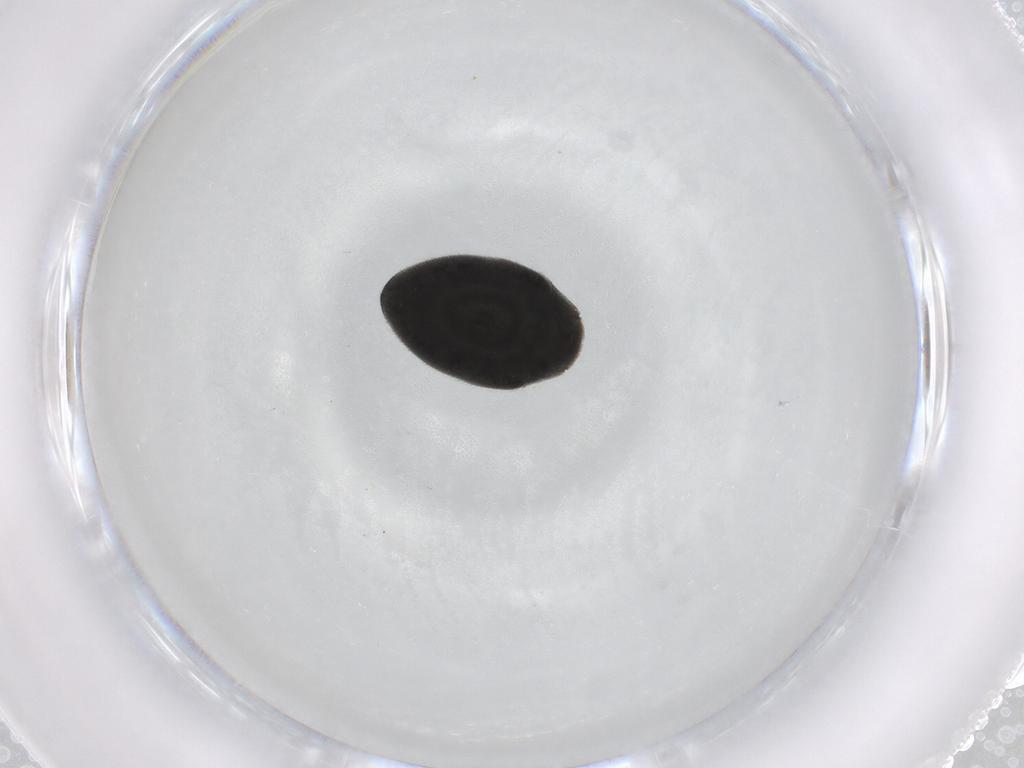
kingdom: Animalia
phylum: Arthropoda
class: Insecta
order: Coleoptera
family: Limnichidae
